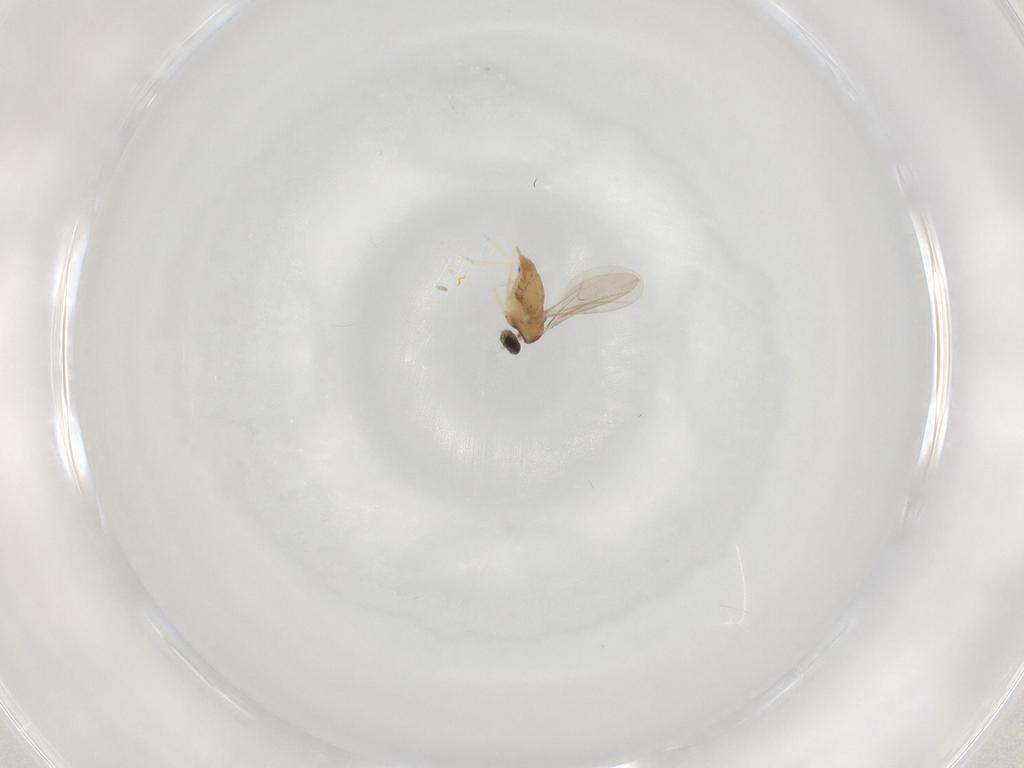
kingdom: Animalia
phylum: Arthropoda
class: Insecta
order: Diptera
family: Cecidomyiidae
